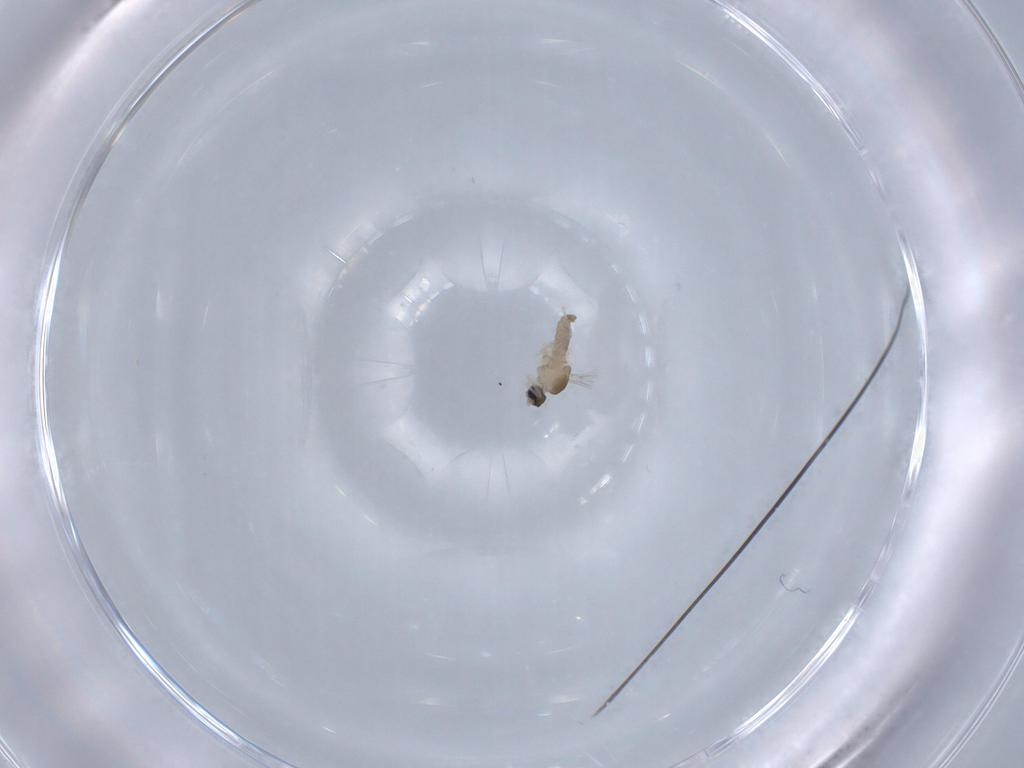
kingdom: Animalia
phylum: Arthropoda
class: Insecta
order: Diptera
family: Cecidomyiidae
